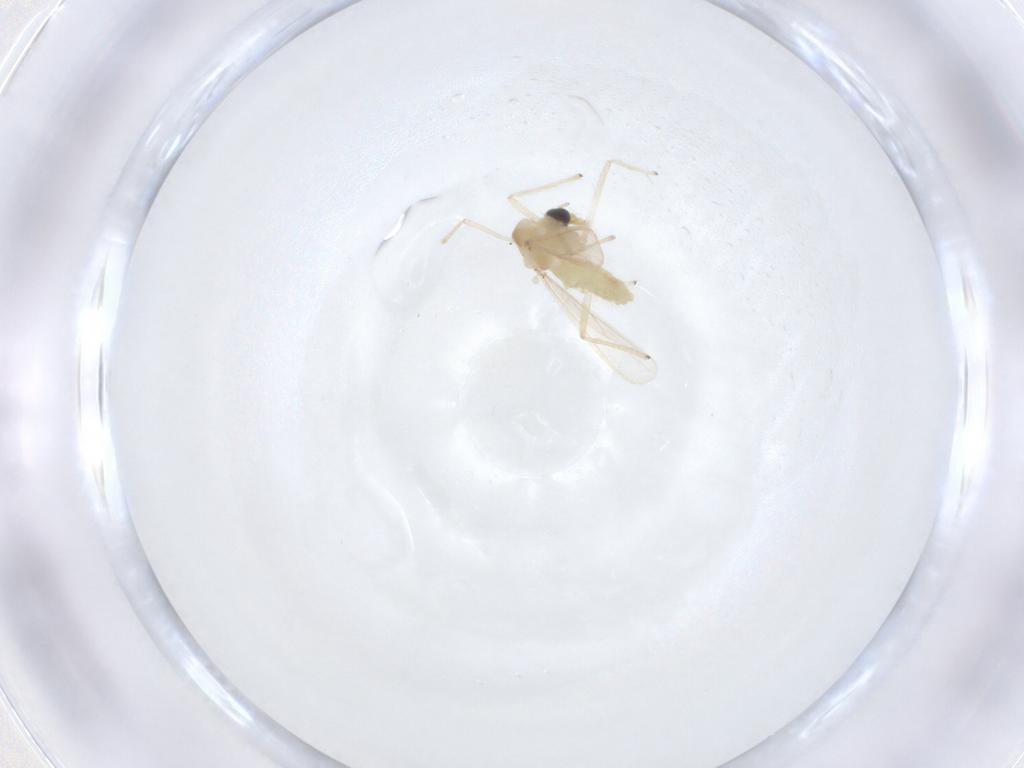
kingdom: Animalia
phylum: Arthropoda
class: Insecta
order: Diptera
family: Chironomidae
